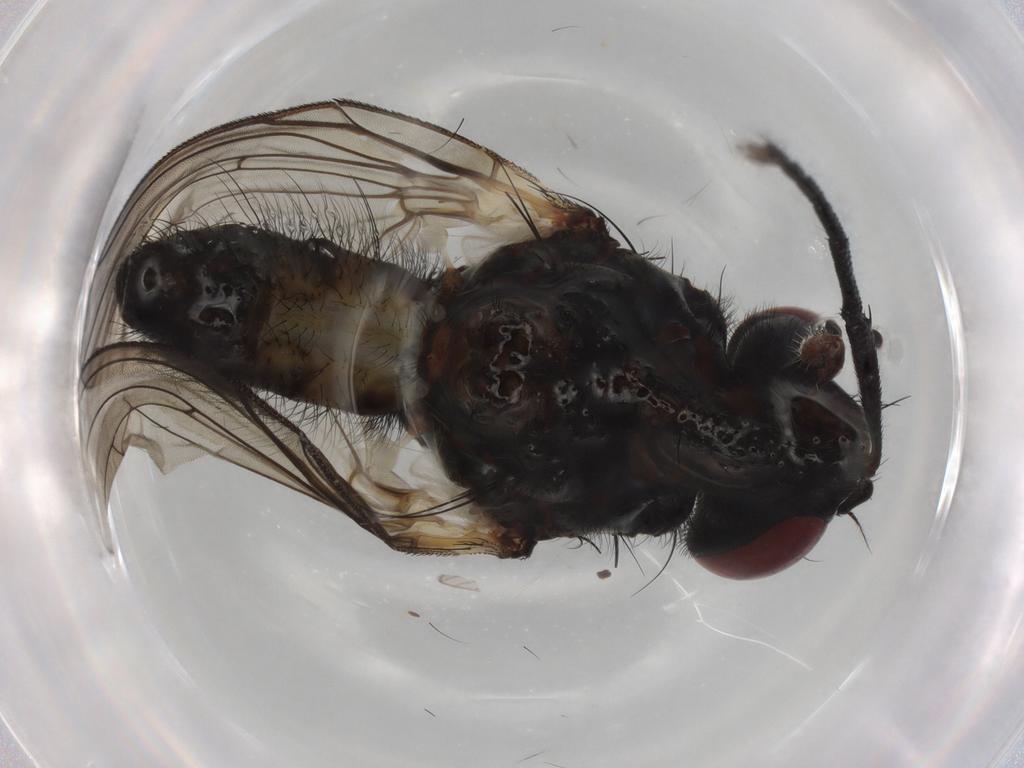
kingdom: Animalia
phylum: Arthropoda
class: Insecta
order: Diptera
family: Anthomyiidae
